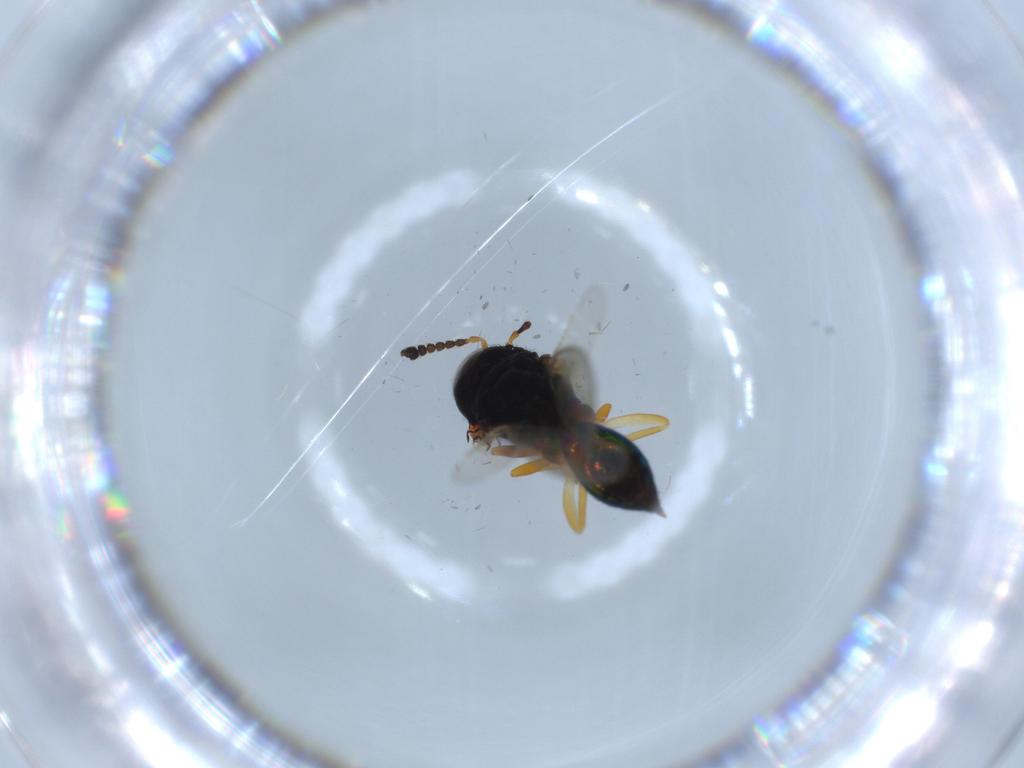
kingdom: Animalia
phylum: Arthropoda
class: Insecta
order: Hymenoptera
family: Pteromalidae
